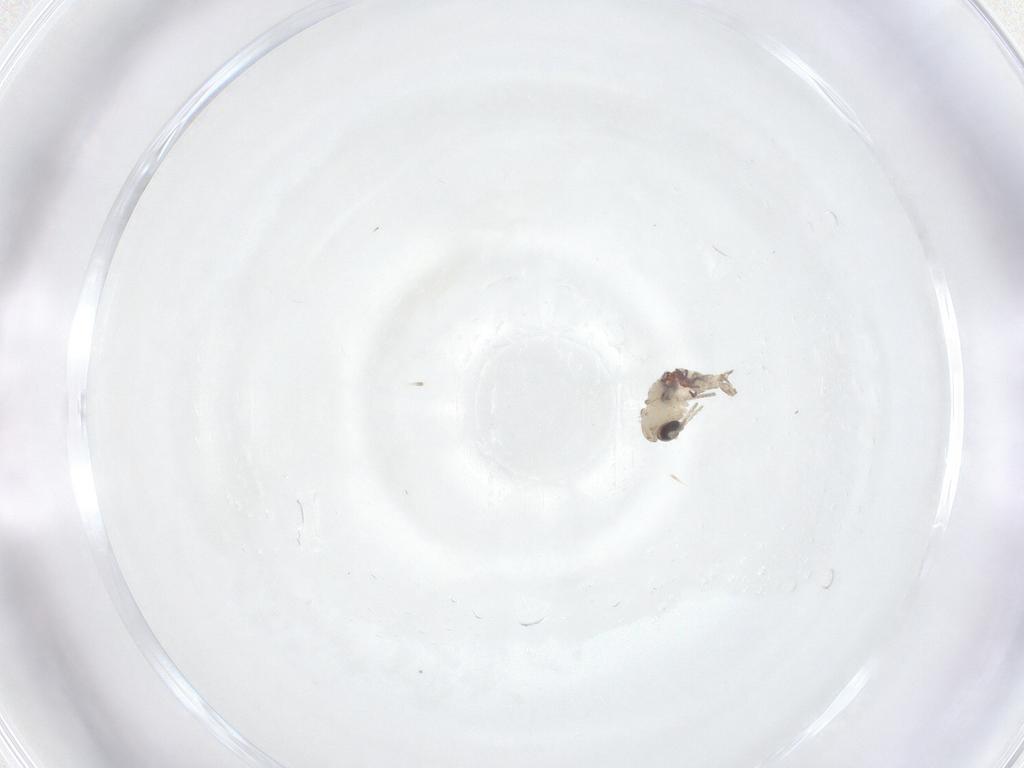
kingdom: Animalia
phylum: Arthropoda
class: Insecta
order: Diptera
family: Psychodidae
